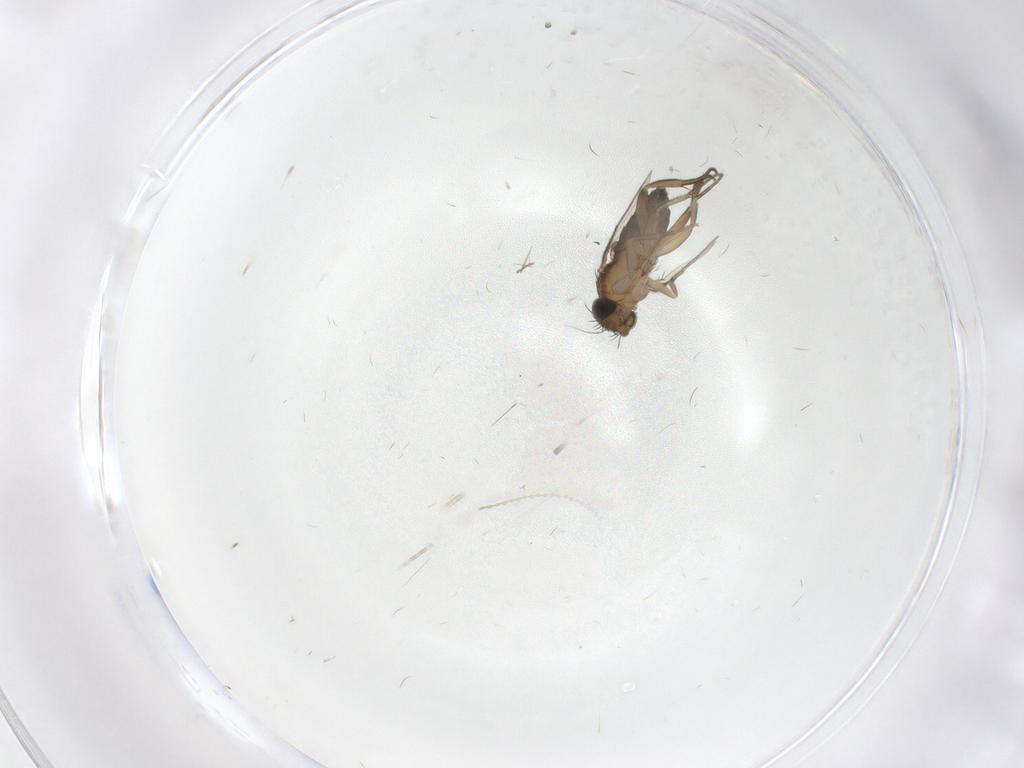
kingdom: Animalia
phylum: Arthropoda
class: Insecta
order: Diptera
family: Phoridae
